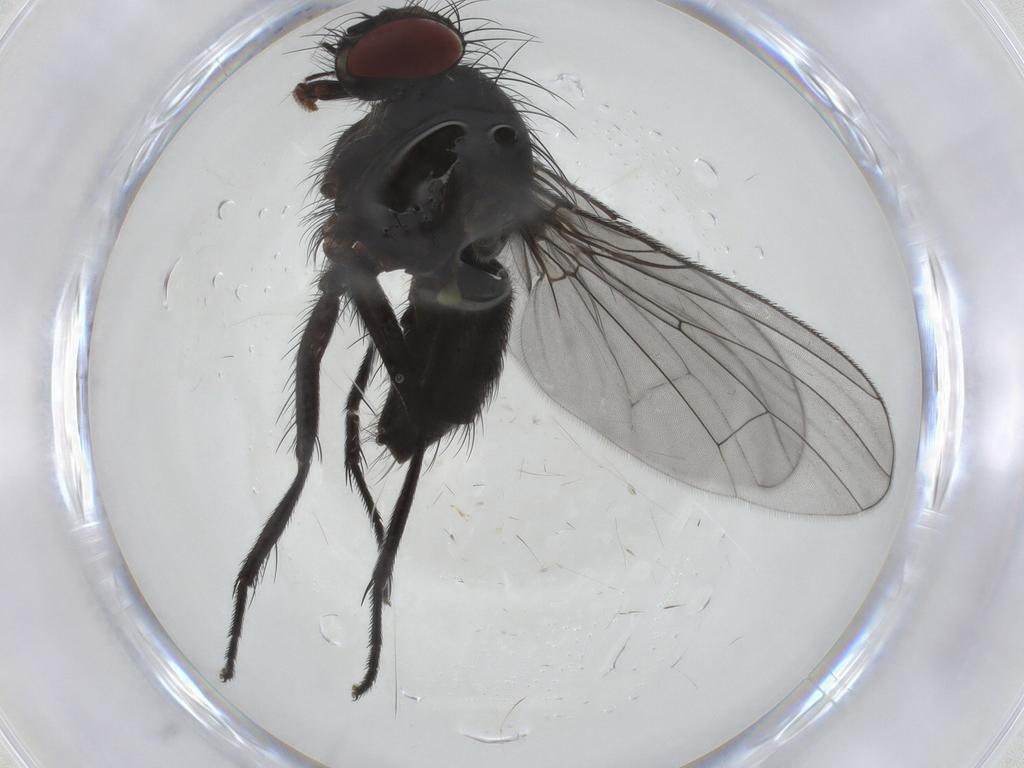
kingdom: Animalia
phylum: Arthropoda
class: Insecta
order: Diptera
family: Muscidae
